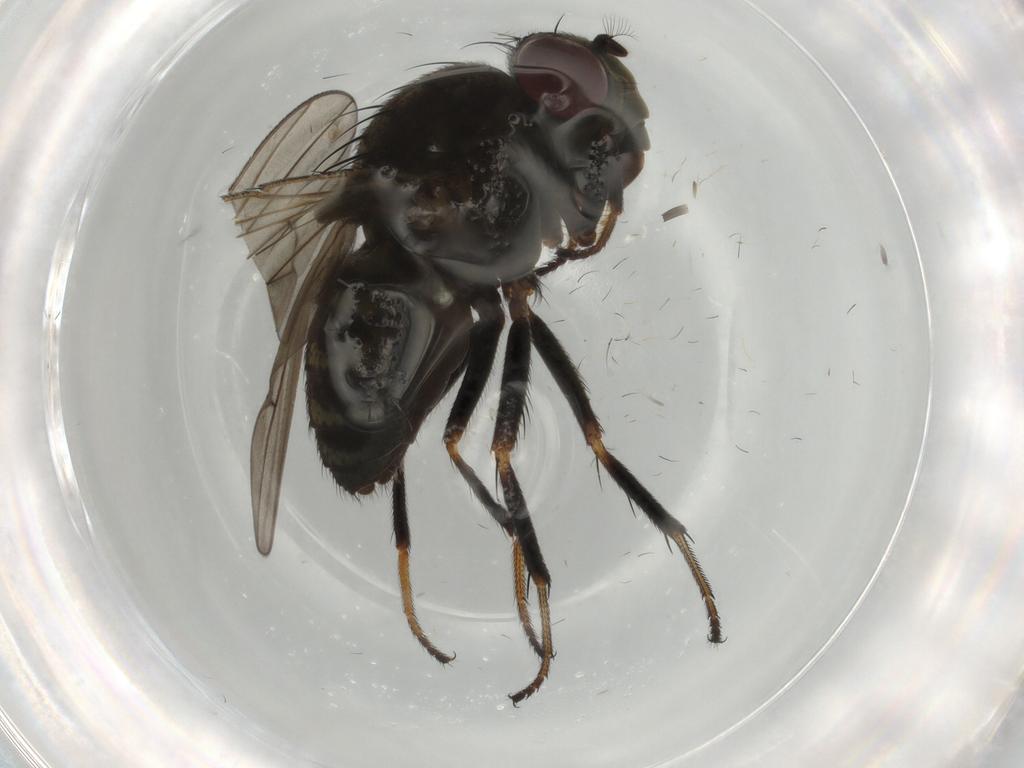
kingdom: Animalia
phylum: Arthropoda
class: Insecta
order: Diptera
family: Ephydridae
